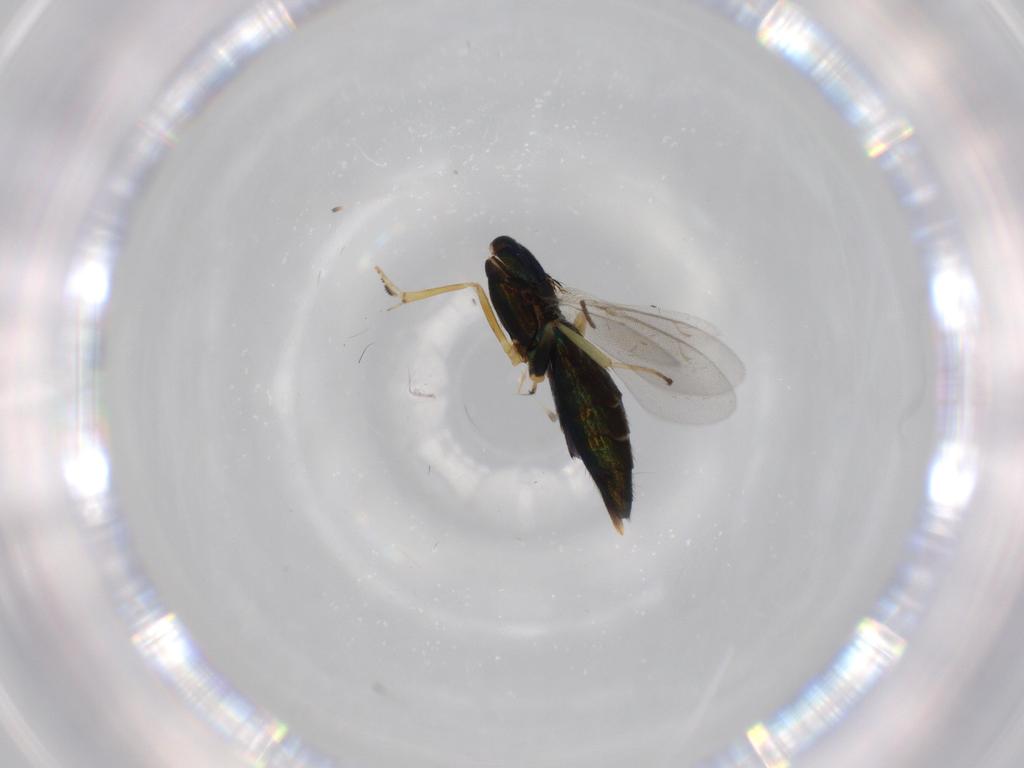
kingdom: Animalia
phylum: Arthropoda
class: Insecta
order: Hymenoptera
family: Eupelmidae
